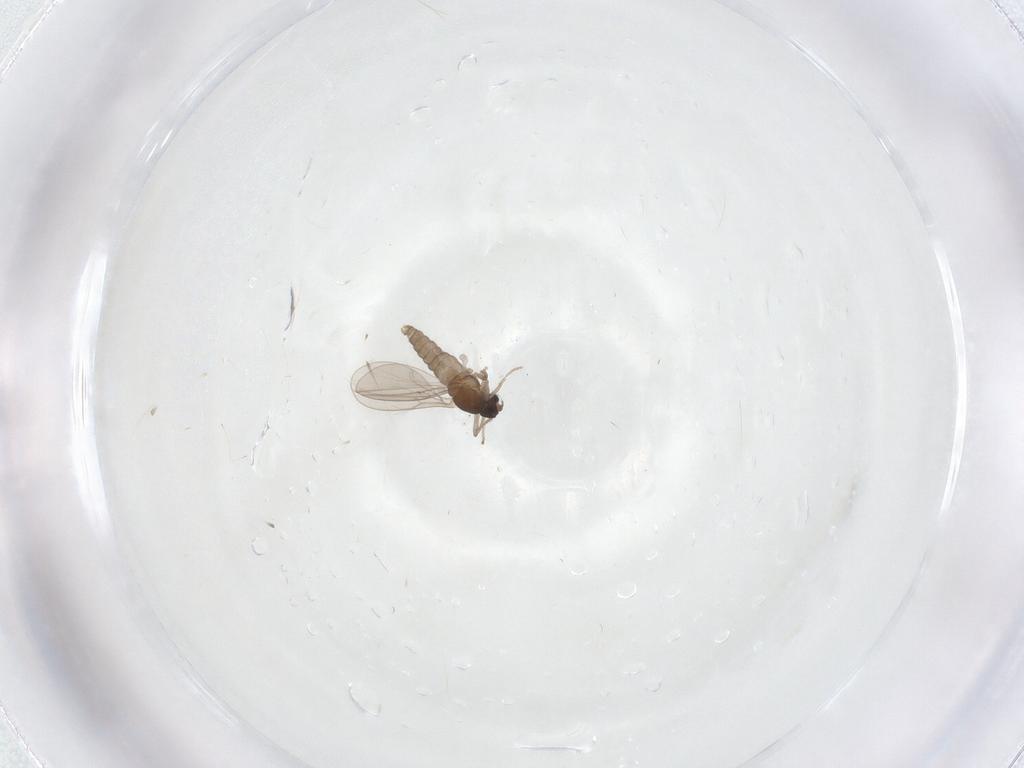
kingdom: Animalia
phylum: Arthropoda
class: Insecta
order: Diptera
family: Cecidomyiidae
